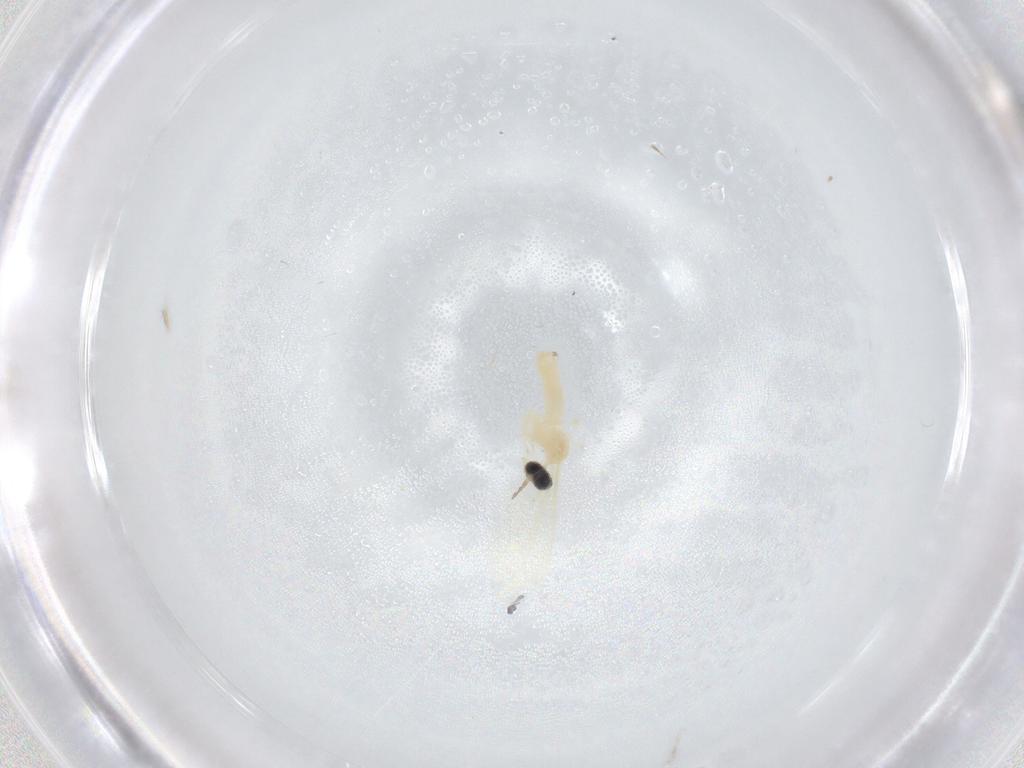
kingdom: Animalia
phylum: Arthropoda
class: Insecta
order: Diptera
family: Cecidomyiidae
